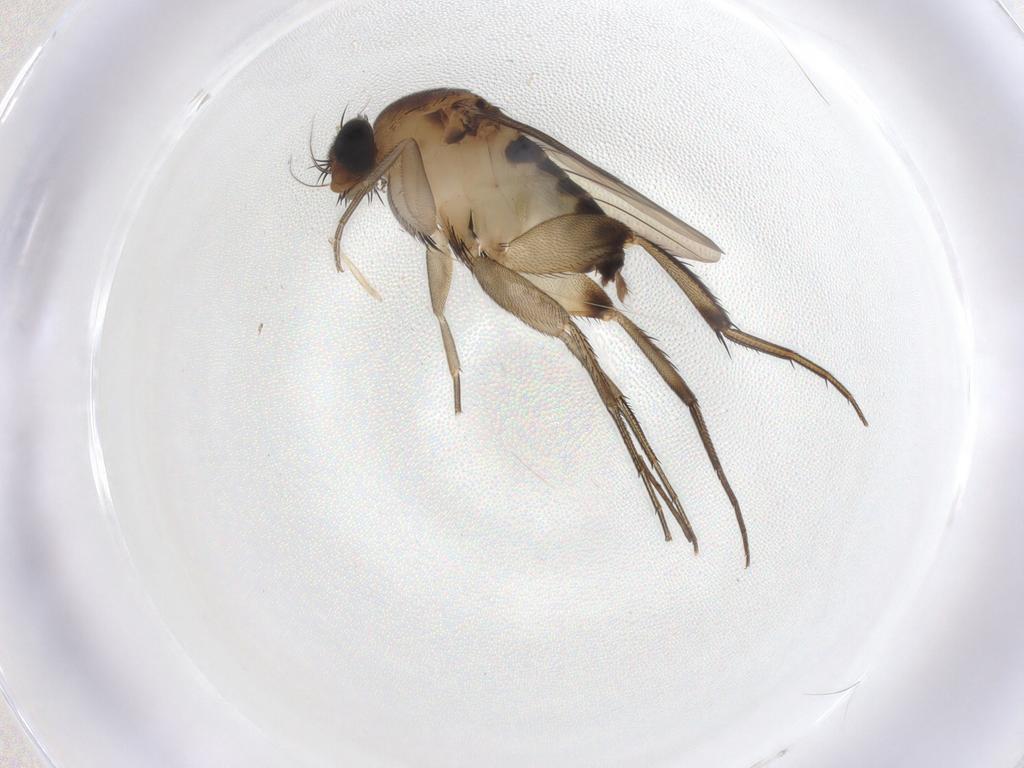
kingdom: Animalia
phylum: Arthropoda
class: Insecta
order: Diptera
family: Phoridae
